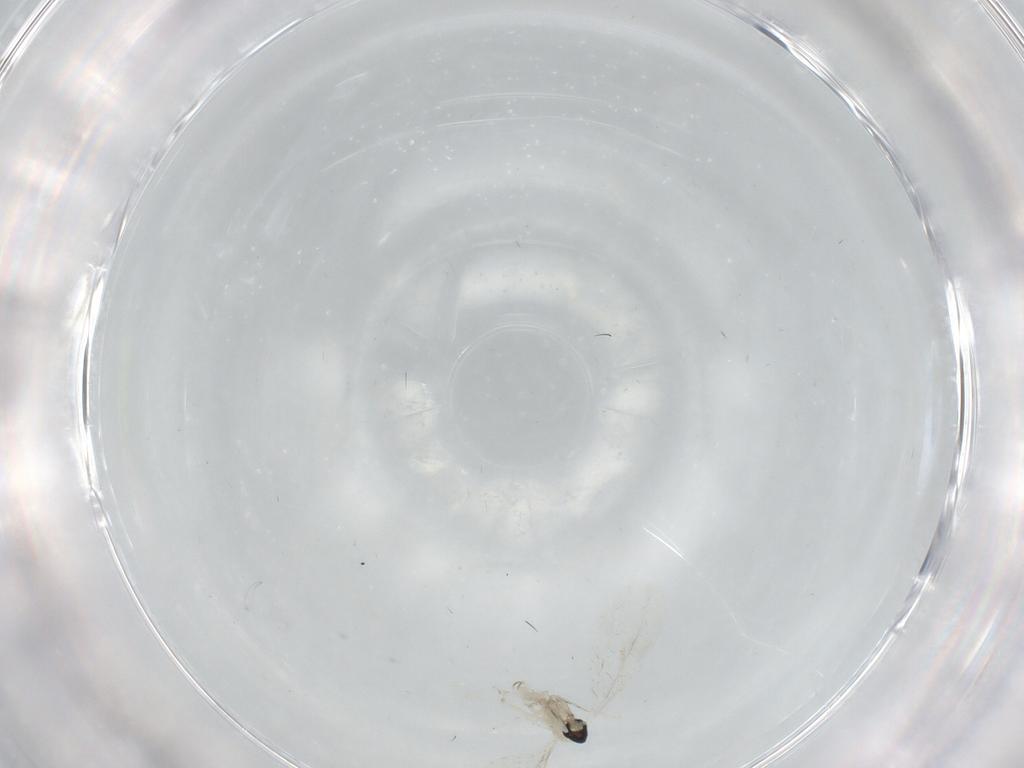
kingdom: Animalia
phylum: Arthropoda
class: Insecta
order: Diptera
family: Cecidomyiidae
